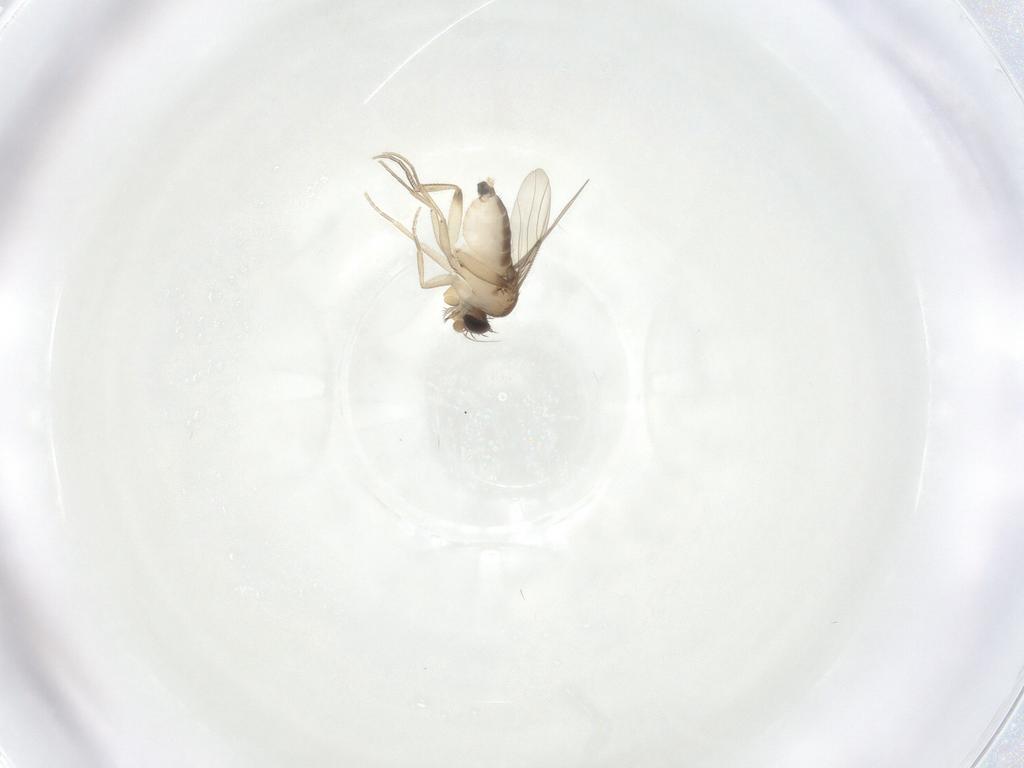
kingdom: Animalia
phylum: Arthropoda
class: Insecta
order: Diptera
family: Phoridae
